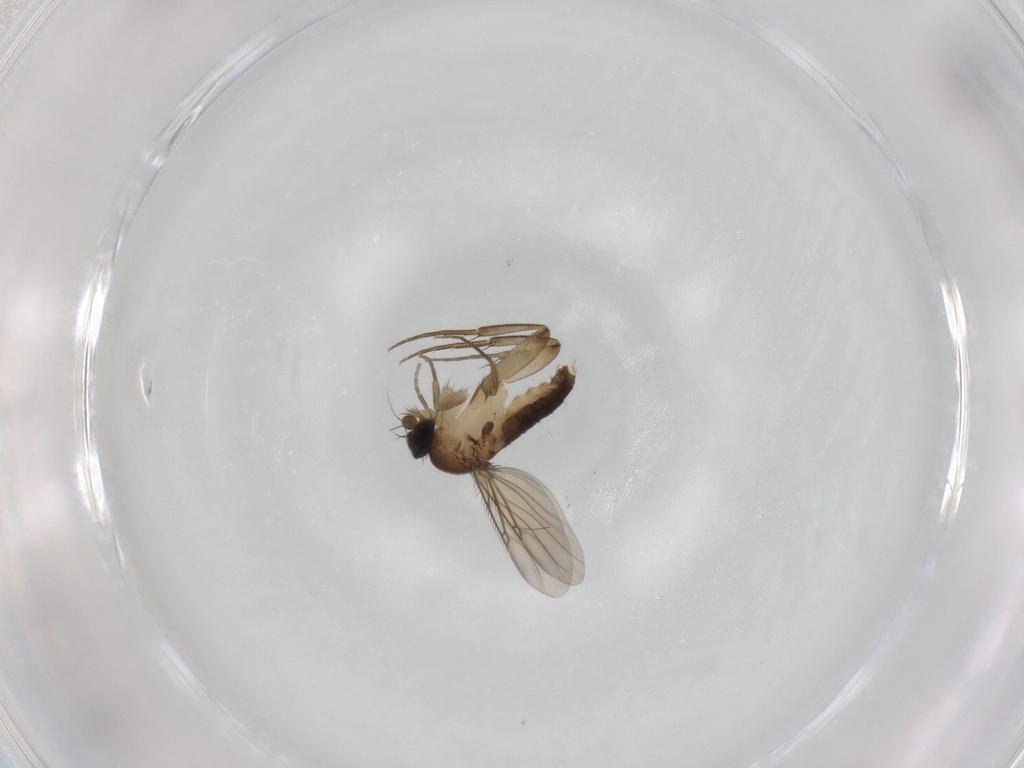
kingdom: Animalia
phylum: Arthropoda
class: Insecta
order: Diptera
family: Phoridae
